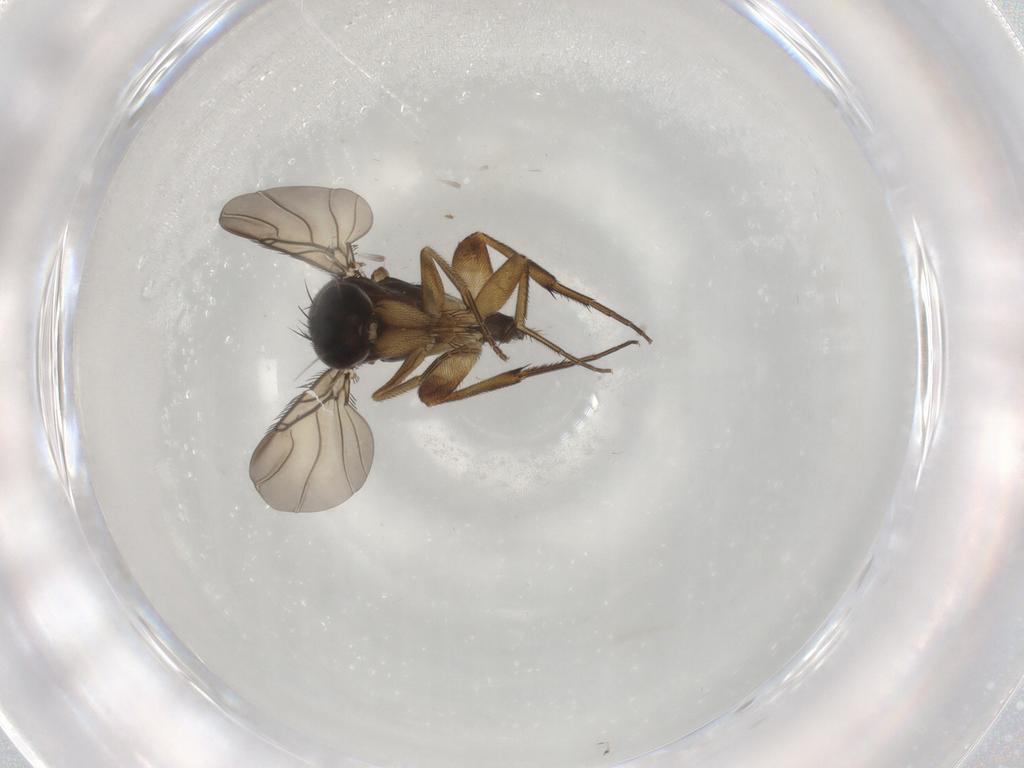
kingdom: Animalia
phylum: Arthropoda
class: Insecta
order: Diptera
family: Phoridae
